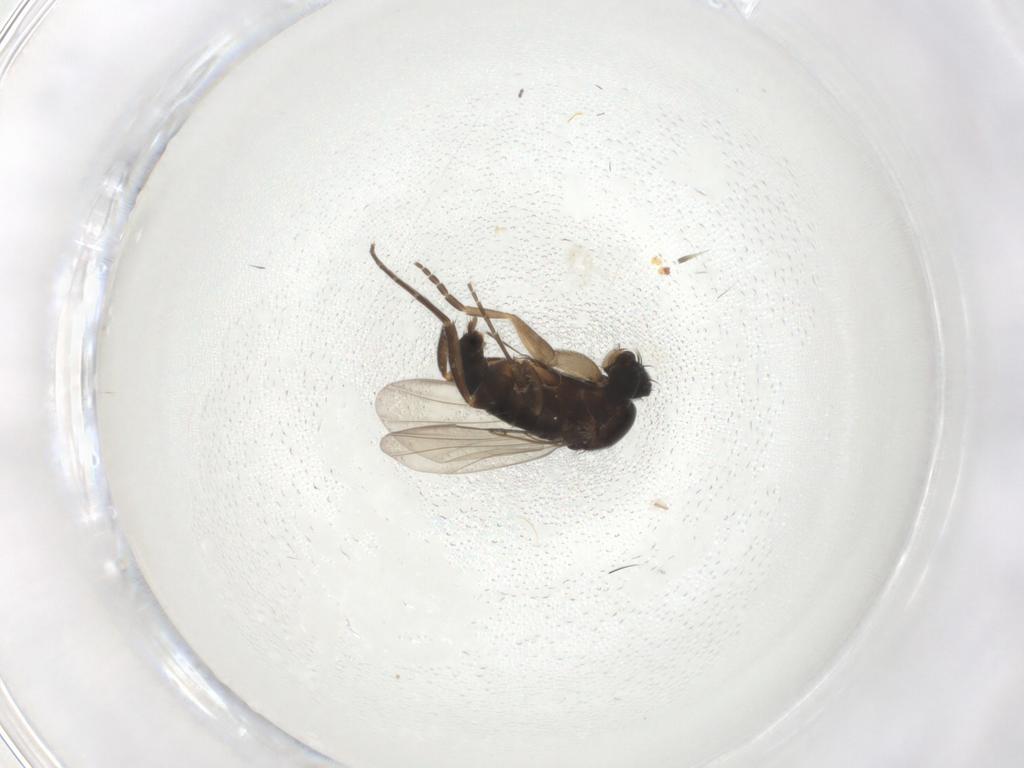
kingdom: Animalia
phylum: Arthropoda
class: Insecta
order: Diptera
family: Phoridae
